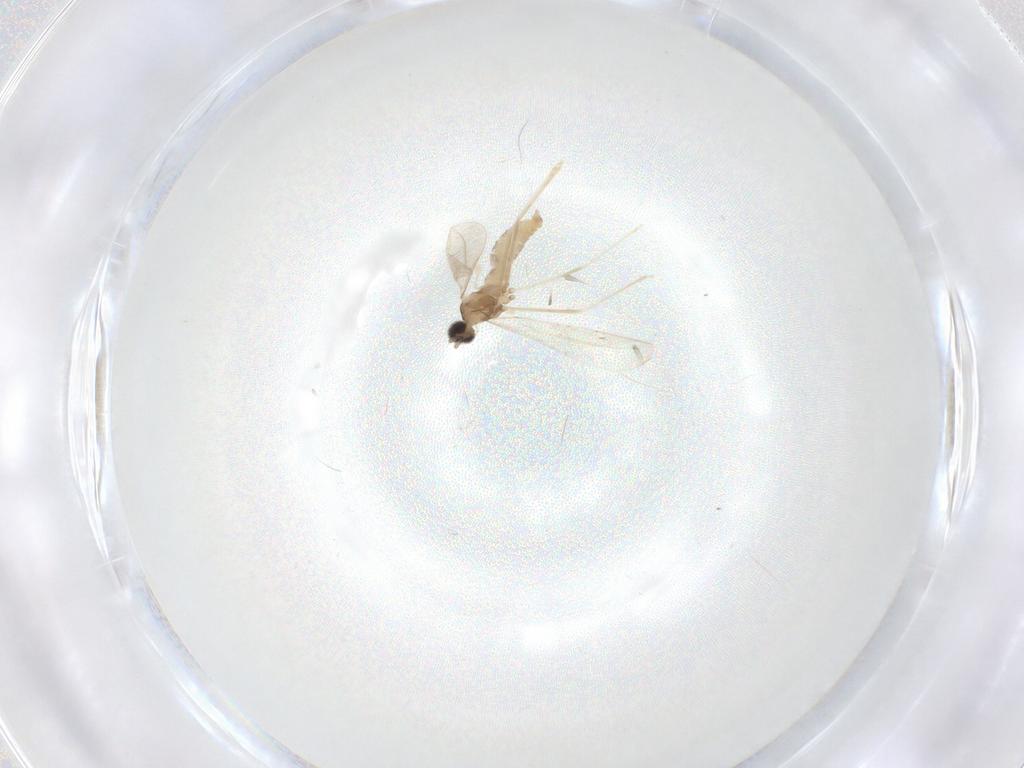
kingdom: Animalia
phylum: Arthropoda
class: Insecta
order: Diptera
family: Cecidomyiidae
